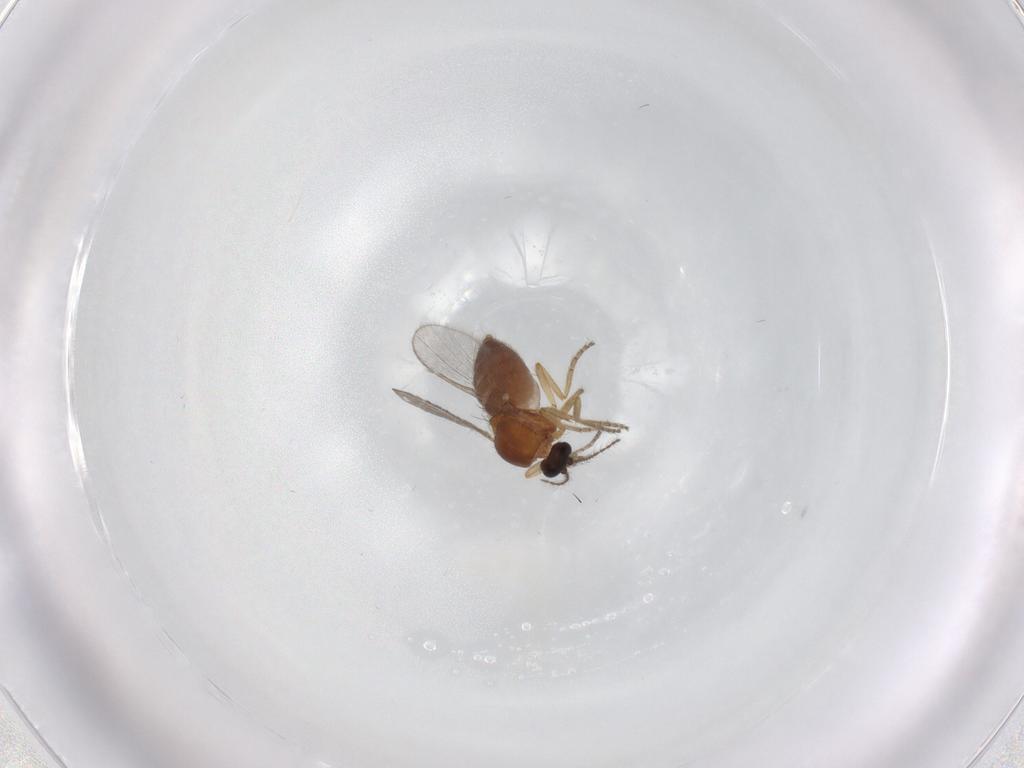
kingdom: Animalia
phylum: Arthropoda
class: Insecta
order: Diptera
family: Ceratopogonidae
